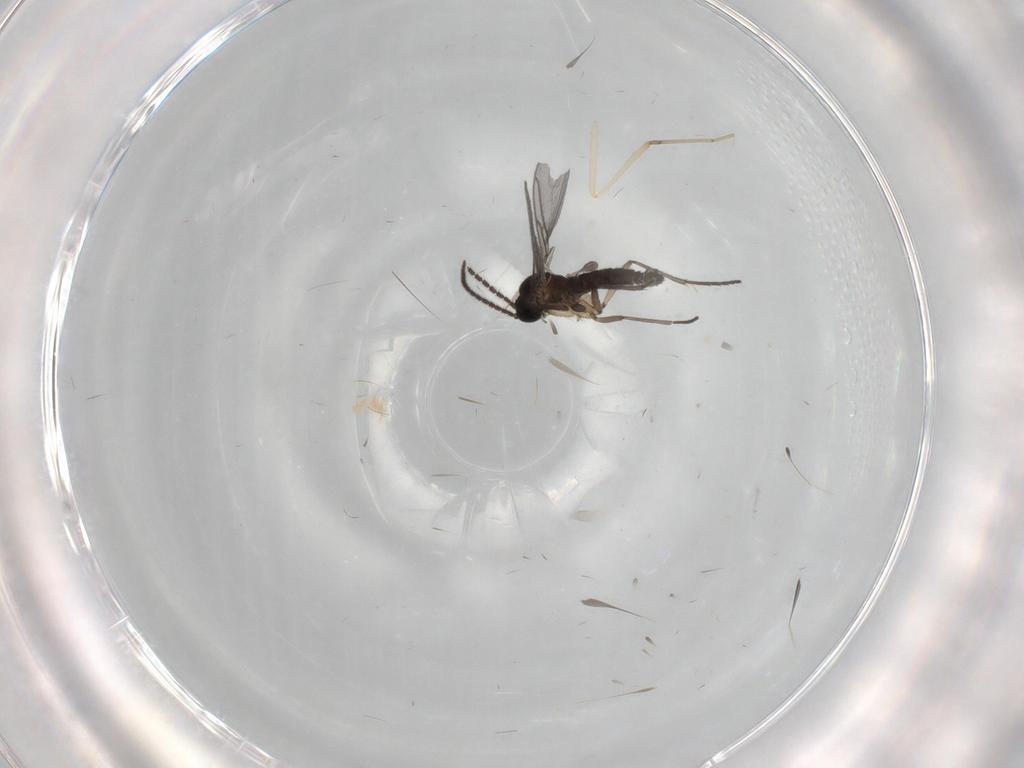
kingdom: Animalia
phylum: Arthropoda
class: Insecta
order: Diptera
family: Sciaridae
